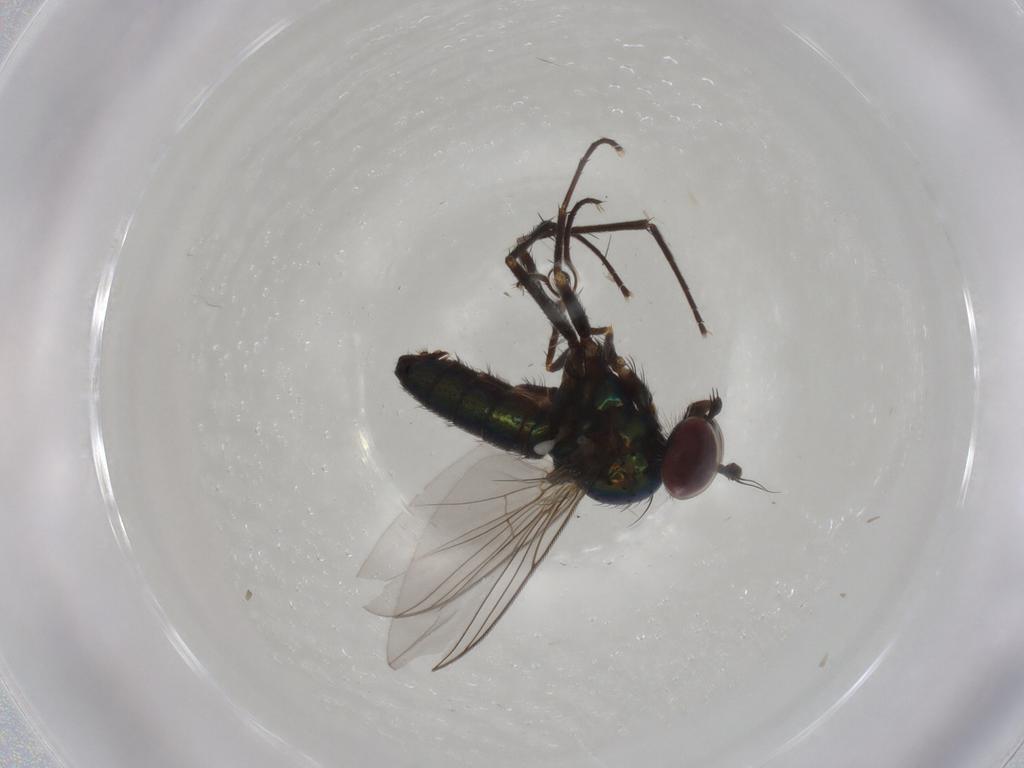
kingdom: Animalia
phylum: Arthropoda
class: Insecta
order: Diptera
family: Dolichopodidae
